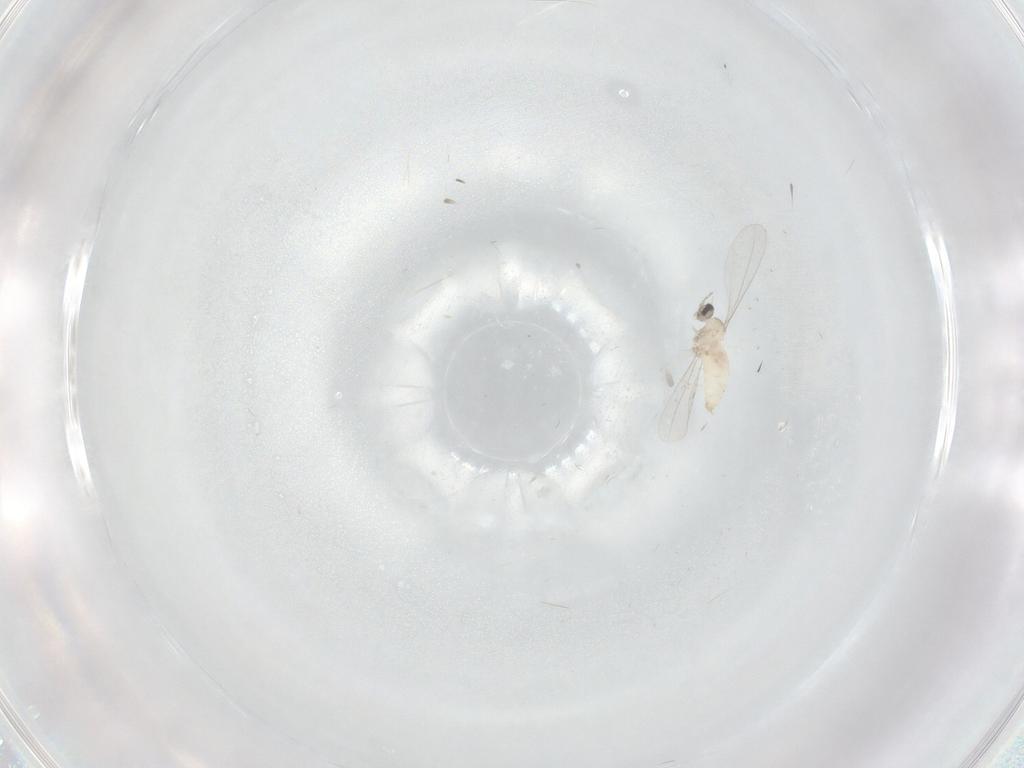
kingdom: Animalia
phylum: Arthropoda
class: Insecta
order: Diptera
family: Cecidomyiidae
